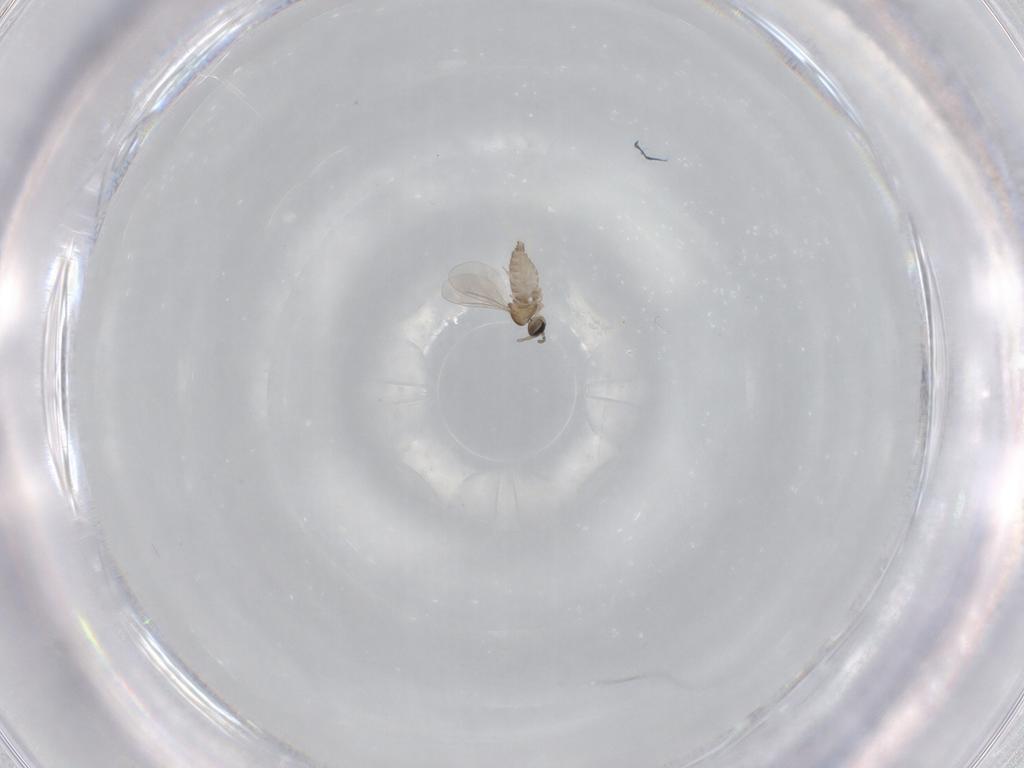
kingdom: Animalia
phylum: Arthropoda
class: Insecta
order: Diptera
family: Cecidomyiidae
